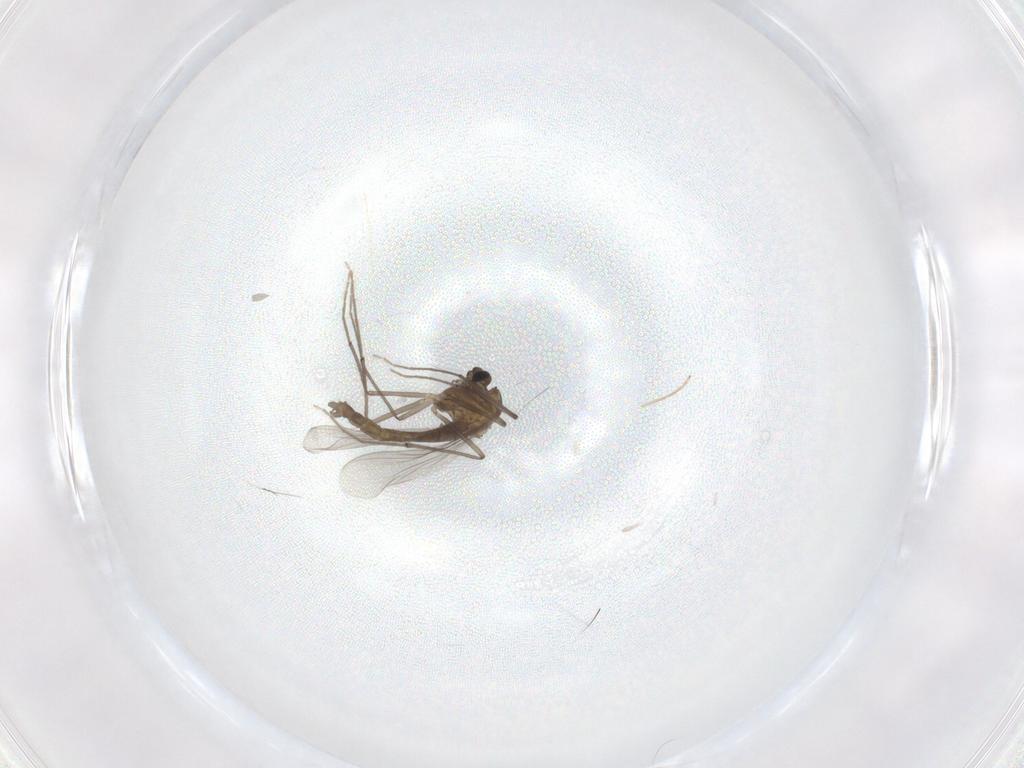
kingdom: Animalia
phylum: Arthropoda
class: Insecta
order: Diptera
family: Chironomidae
